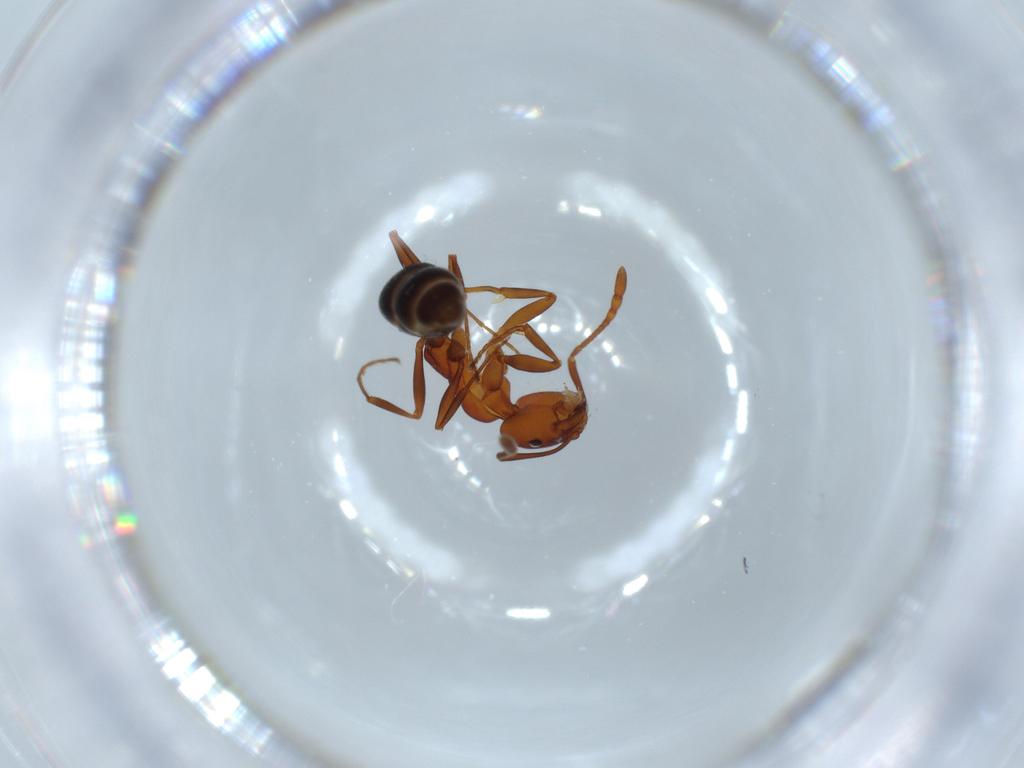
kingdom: Animalia
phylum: Arthropoda
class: Insecta
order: Hymenoptera
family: Formicidae
